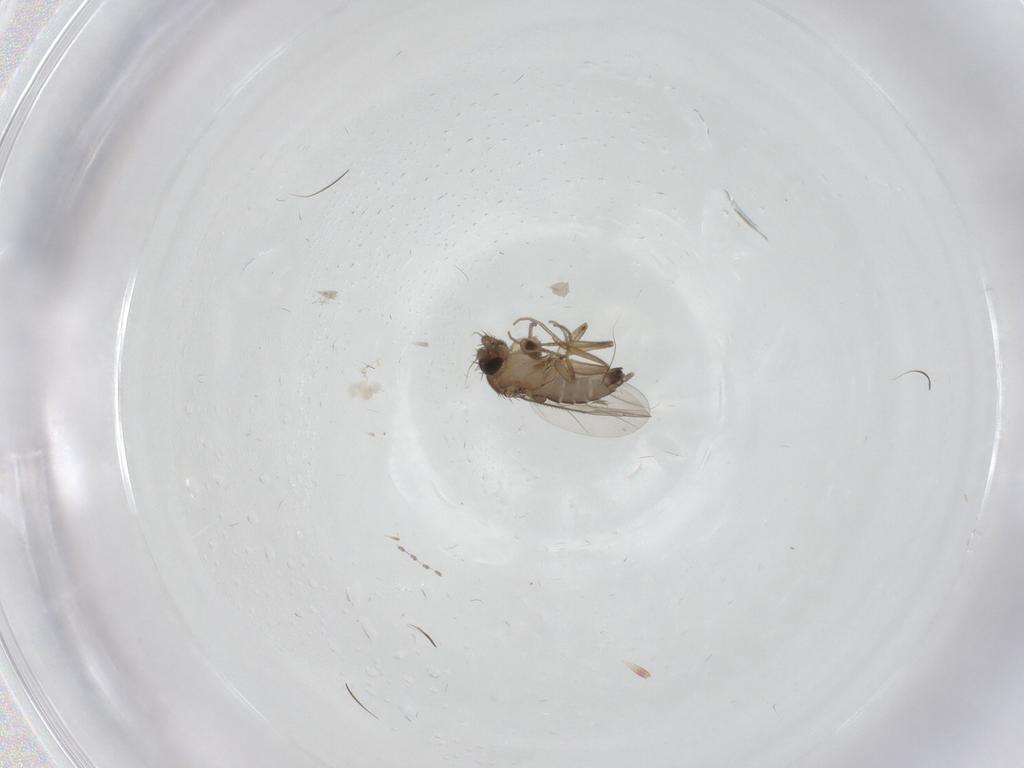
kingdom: Animalia
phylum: Arthropoda
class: Insecta
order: Diptera
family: Phoridae
